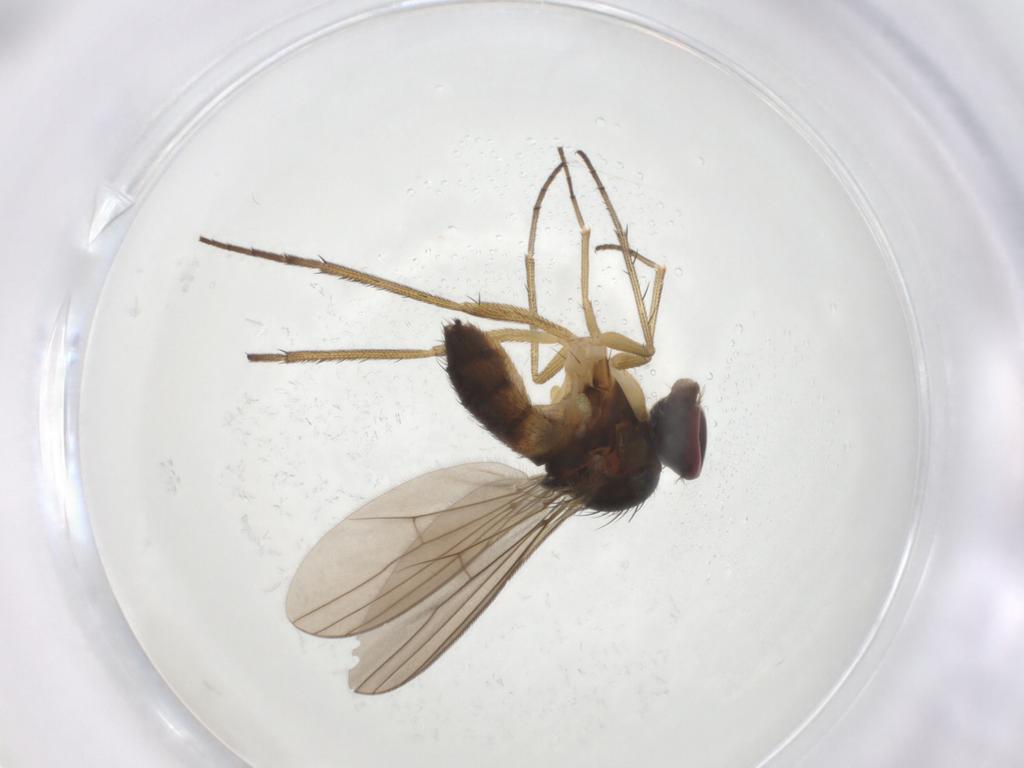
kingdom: Animalia
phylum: Arthropoda
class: Insecta
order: Diptera
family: Dolichopodidae
